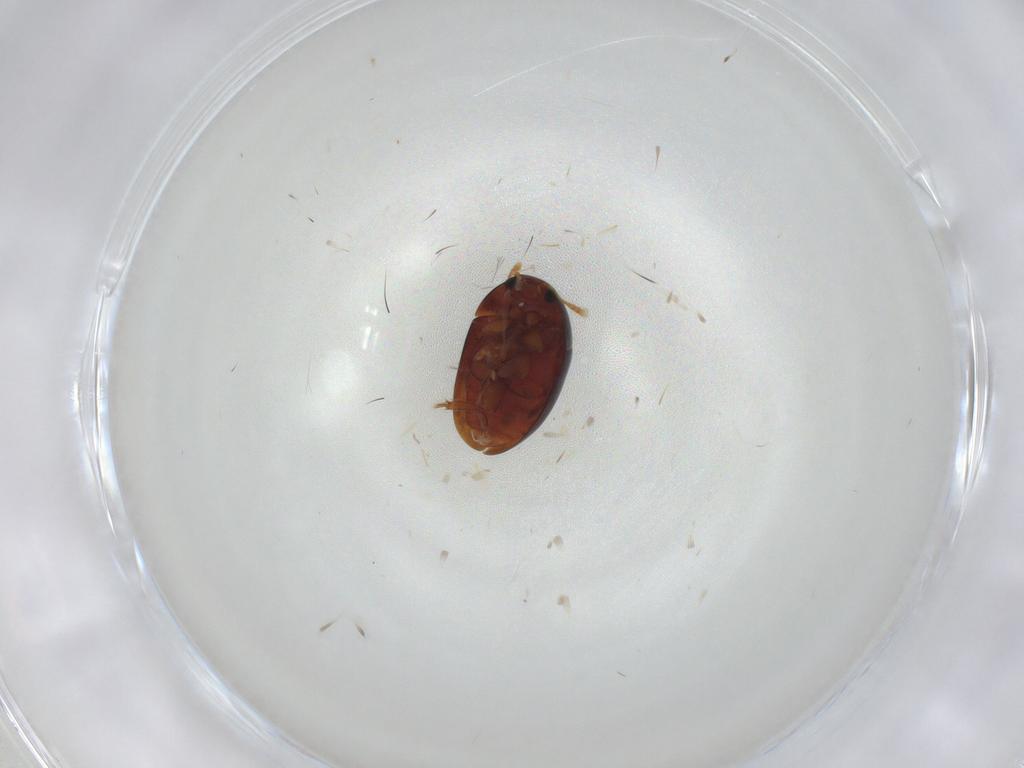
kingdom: Animalia
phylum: Arthropoda
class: Insecta
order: Coleoptera
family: Phalacridae
